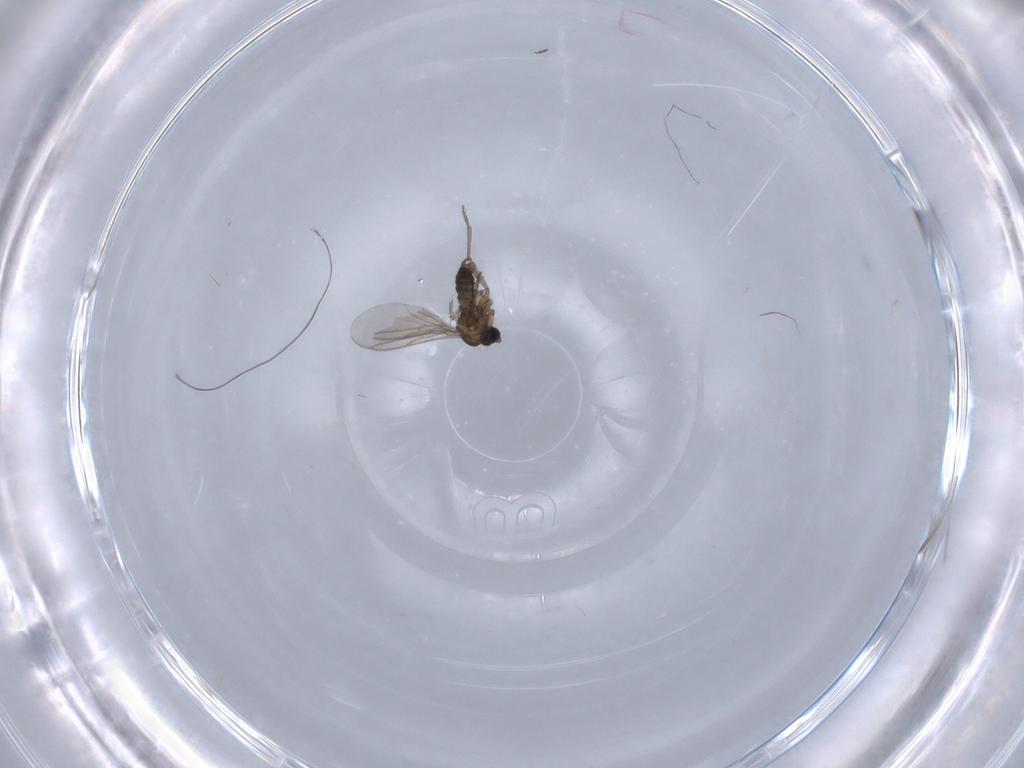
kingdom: Animalia
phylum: Arthropoda
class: Insecta
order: Diptera
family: Sciaridae
